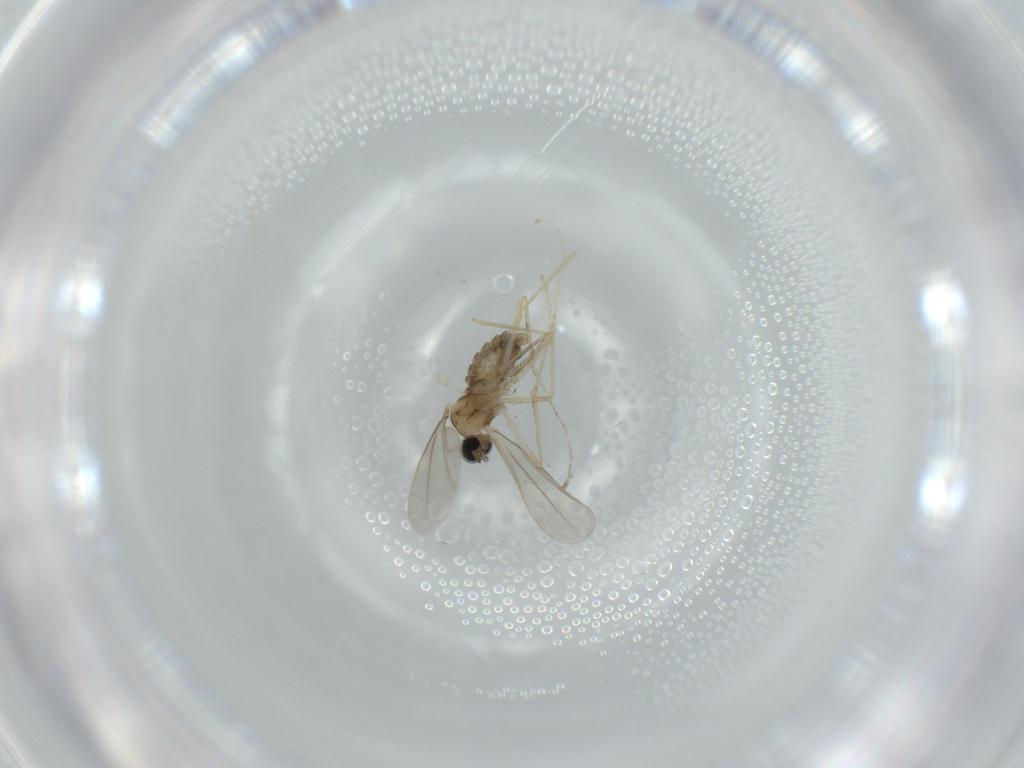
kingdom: Animalia
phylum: Arthropoda
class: Insecta
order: Diptera
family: Cecidomyiidae
